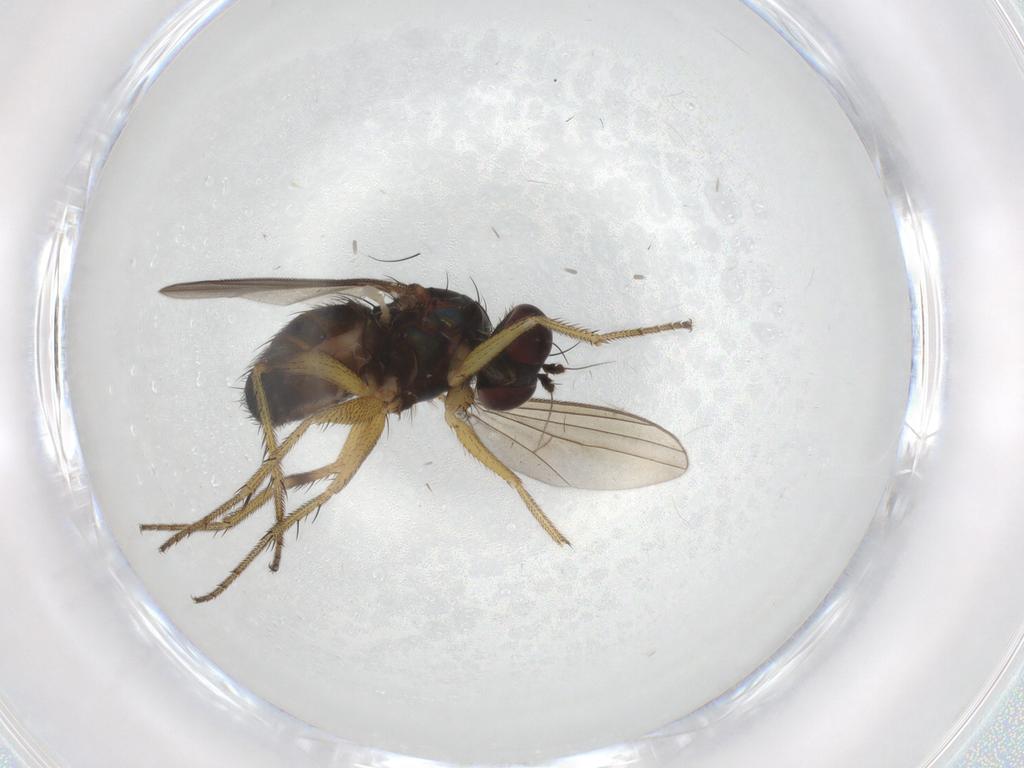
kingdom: Animalia
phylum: Arthropoda
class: Insecta
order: Diptera
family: Dolichopodidae
